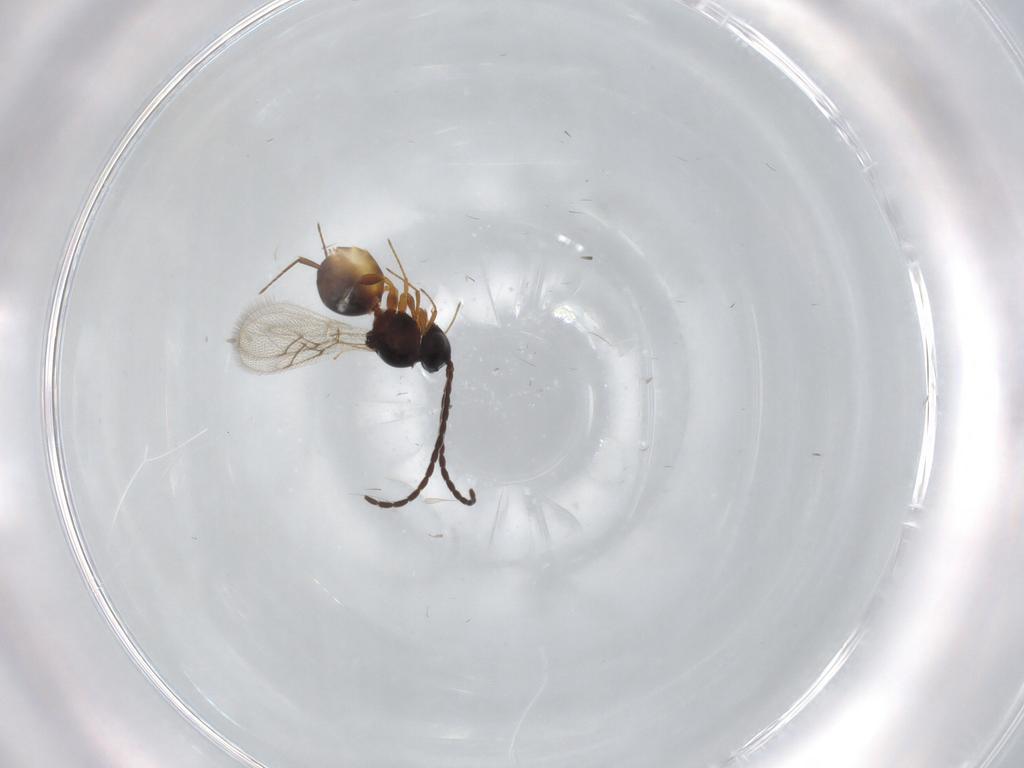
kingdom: Animalia
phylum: Arthropoda
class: Insecta
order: Hymenoptera
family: Figitidae
